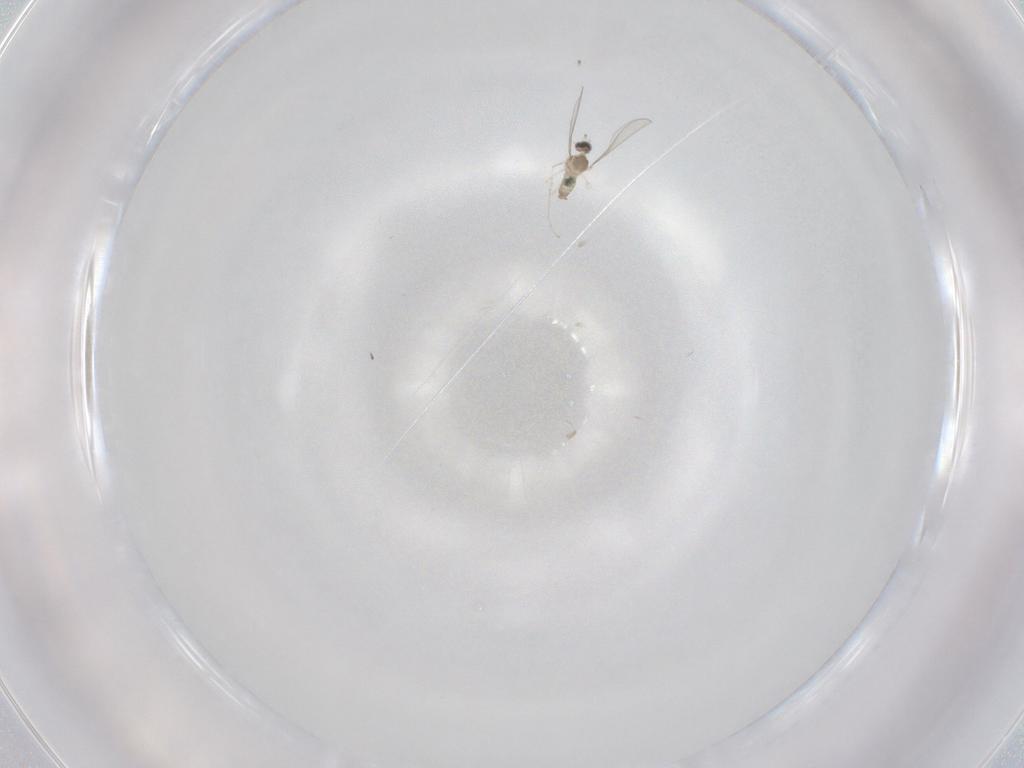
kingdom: Animalia
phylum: Arthropoda
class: Insecta
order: Diptera
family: Cecidomyiidae
